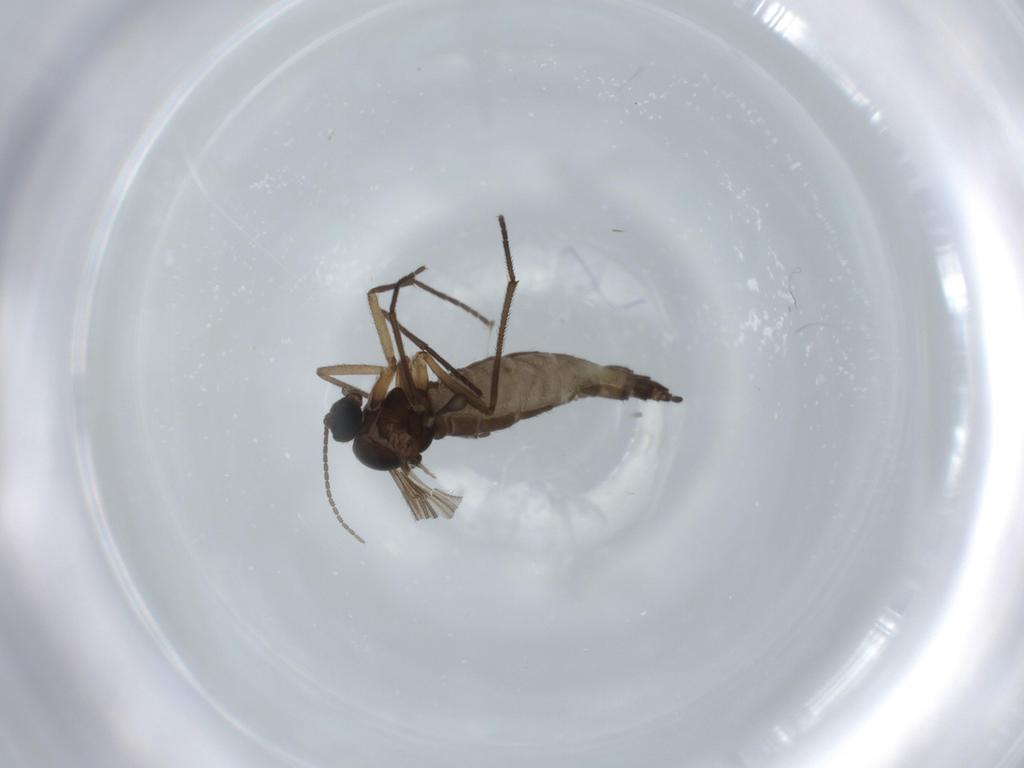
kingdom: Animalia
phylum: Arthropoda
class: Insecta
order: Diptera
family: Sciaridae
